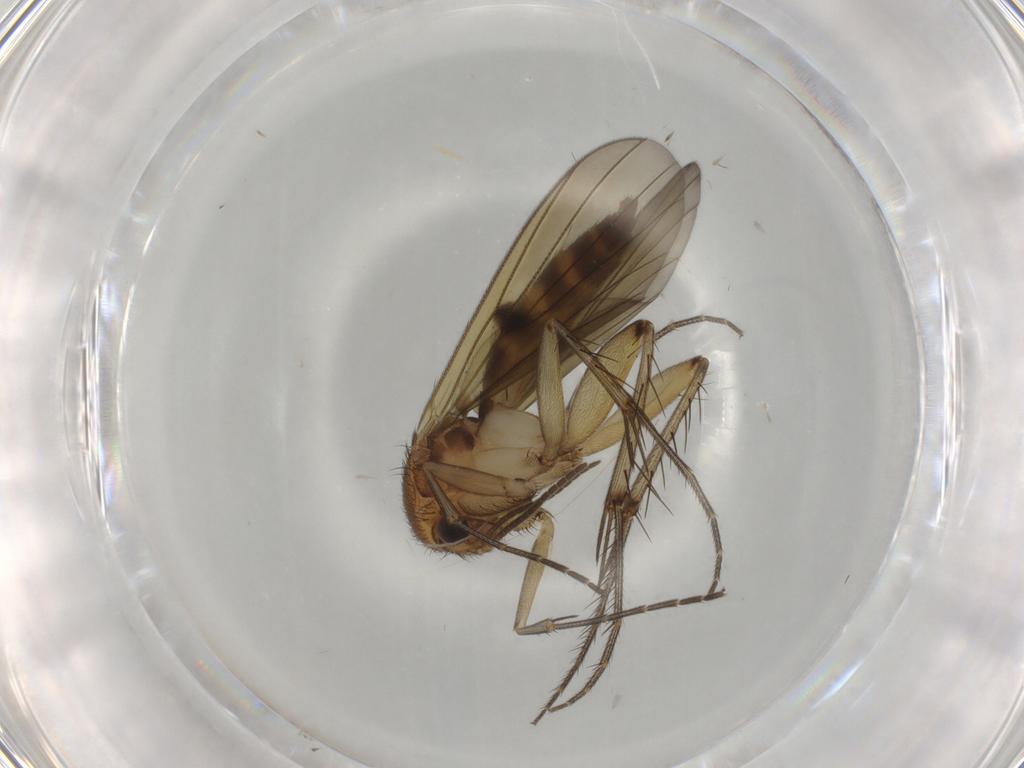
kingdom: Animalia
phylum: Arthropoda
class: Insecta
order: Diptera
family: Mycetophilidae
